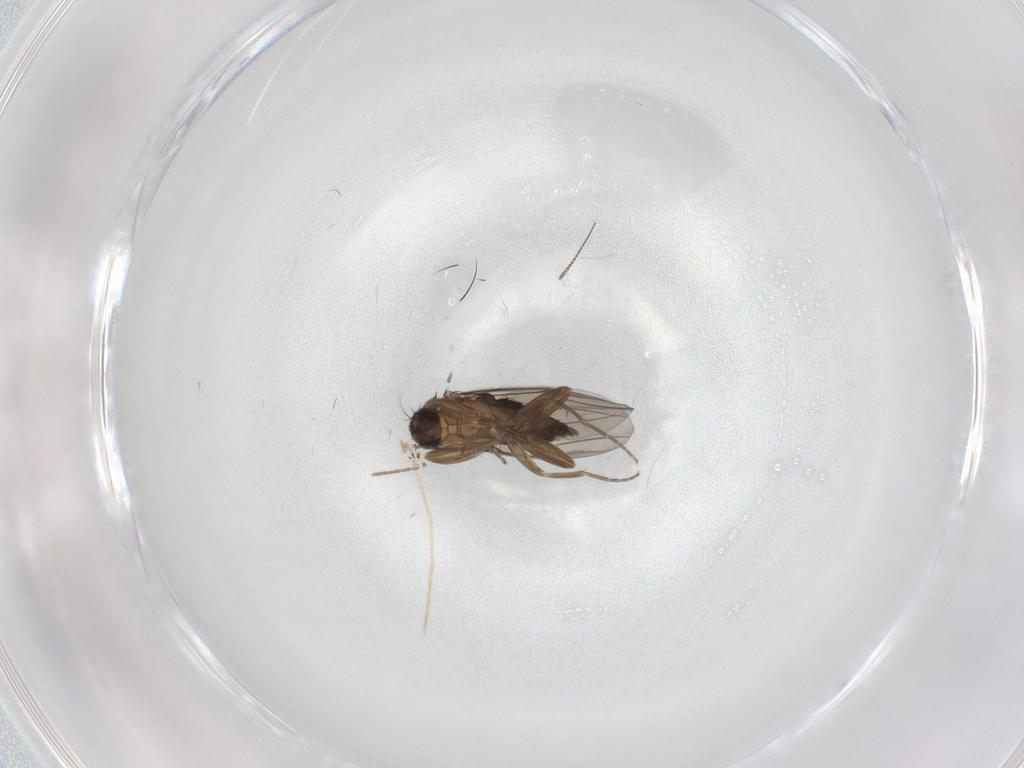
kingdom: Animalia
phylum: Arthropoda
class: Insecta
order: Diptera
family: Phoridae
